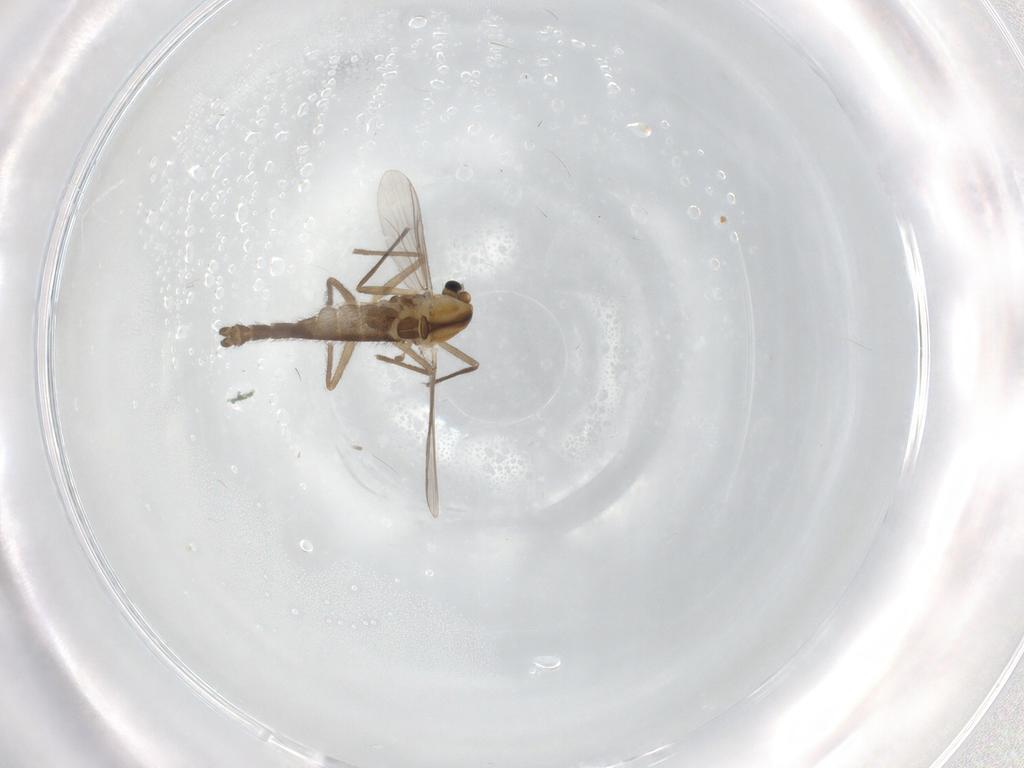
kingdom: Animalia
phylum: Arthropoda
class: Insecta
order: Diptera
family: Chironomidae
